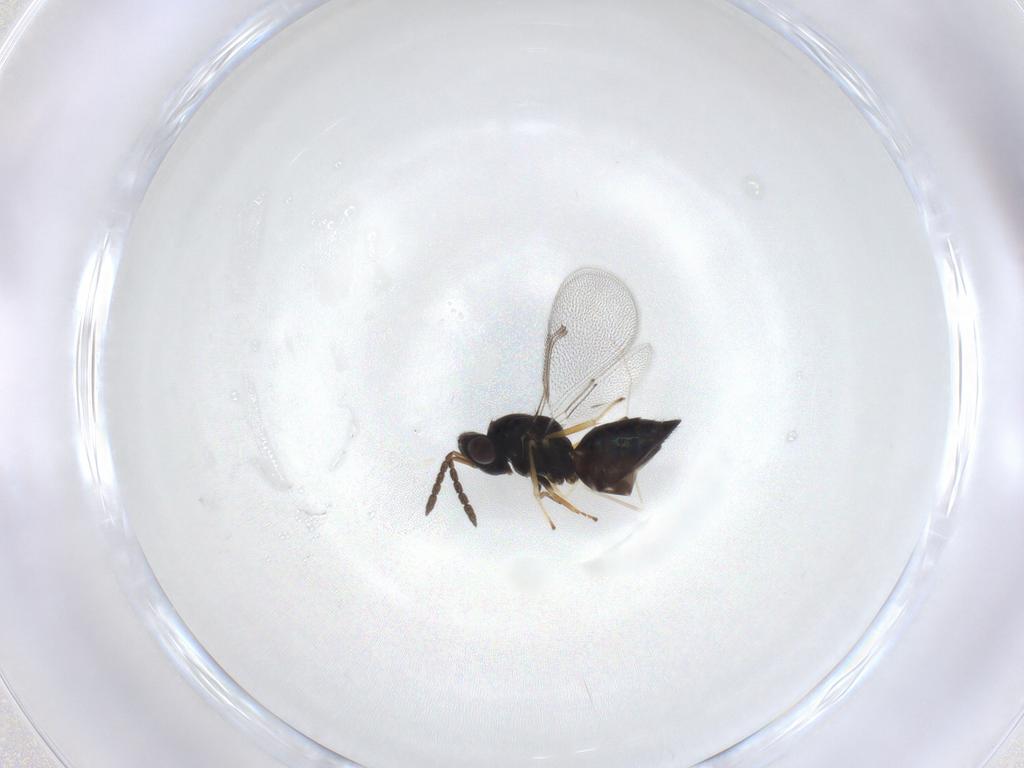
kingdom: Animalia
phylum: Arthropoda
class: Insecta
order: Hymenoptera
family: Eulophidae
